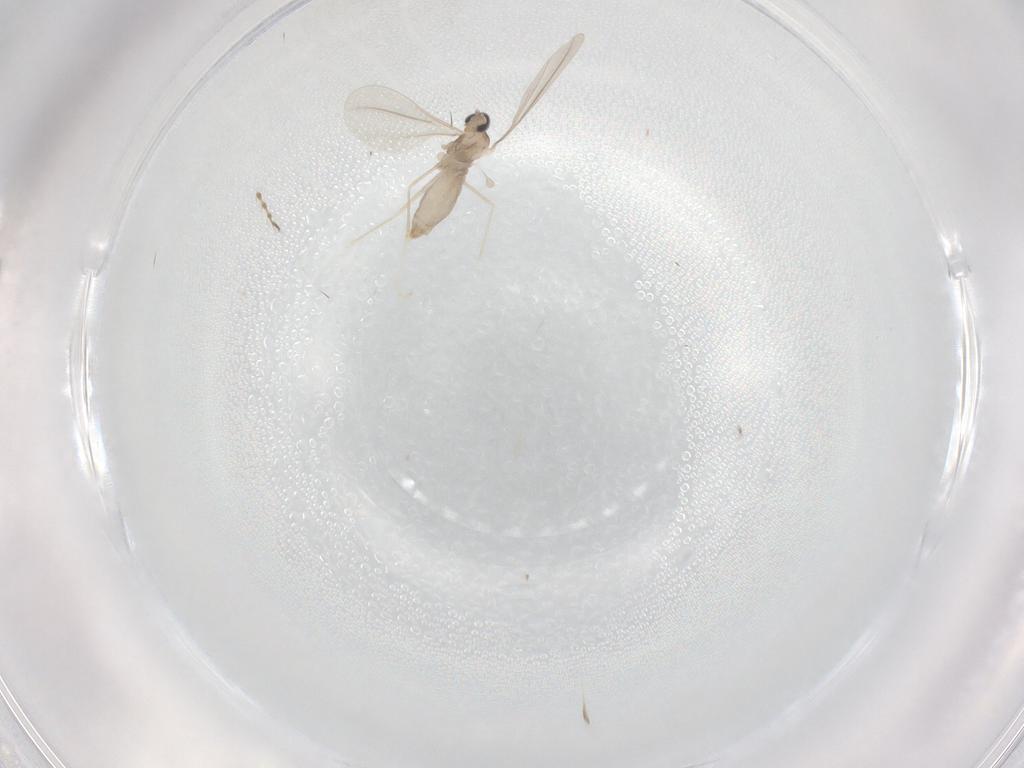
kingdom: Animalia
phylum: Arthropoda
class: Insecta
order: Diptera
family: Cecidomyiidae
